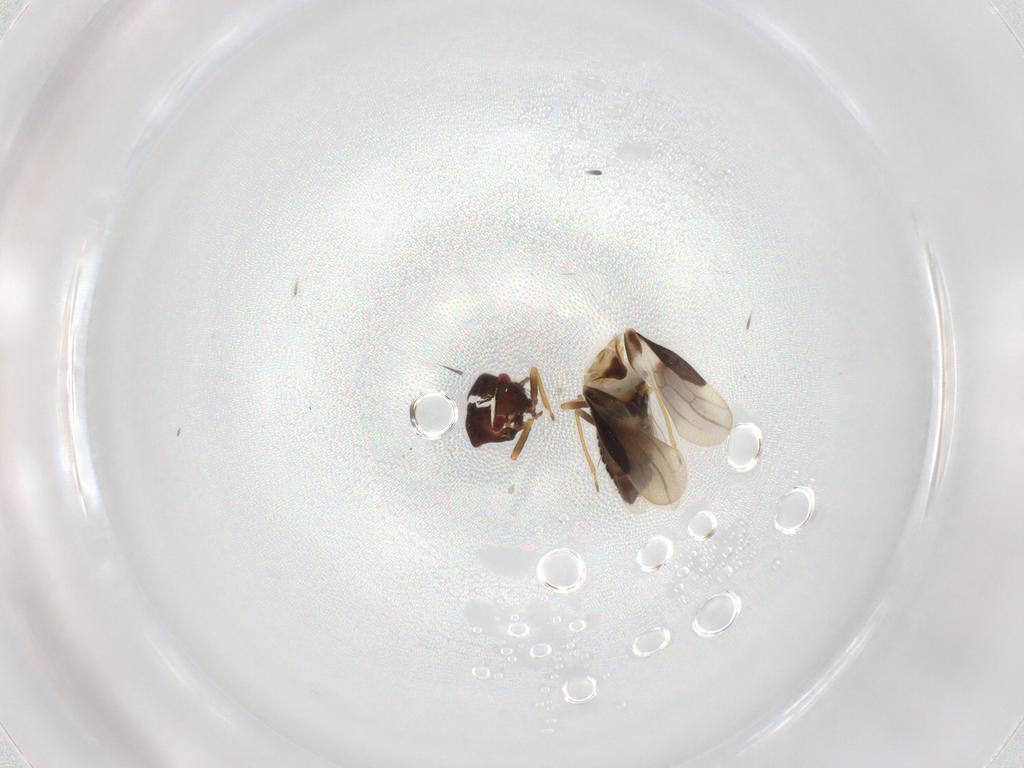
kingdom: Animalia
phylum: Arthropoda
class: Insecta
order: Hemiptera
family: Schizopteridae
